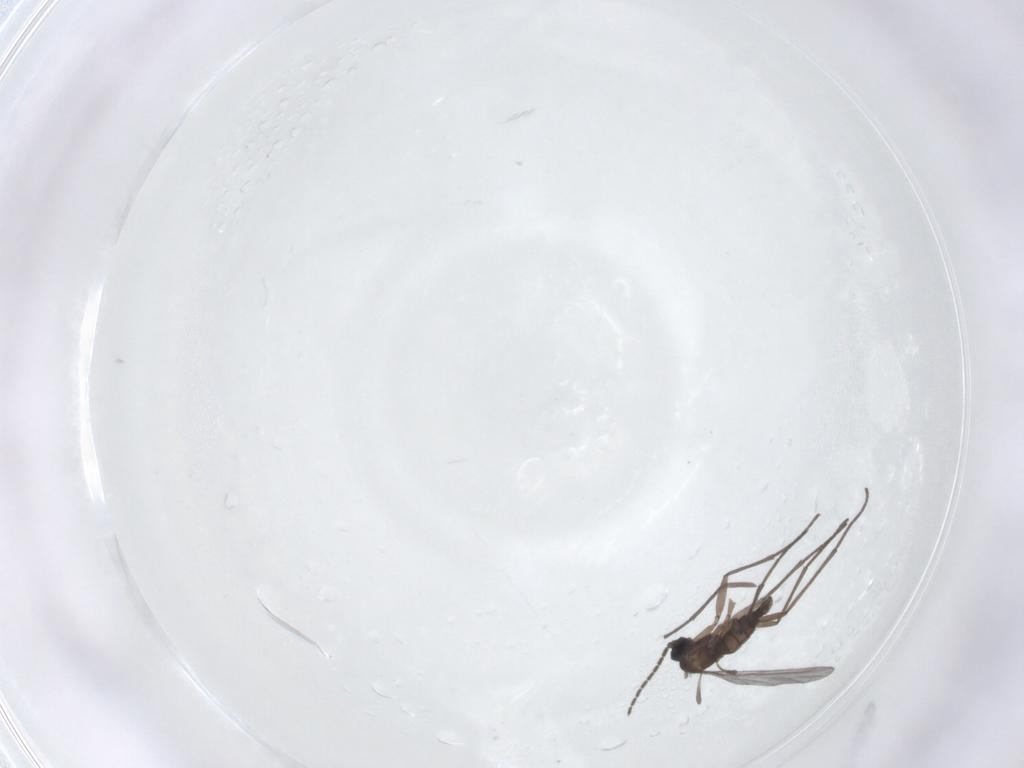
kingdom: Animalia
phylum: Arthropoda
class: Insecta
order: Diptera
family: Sciaridae
